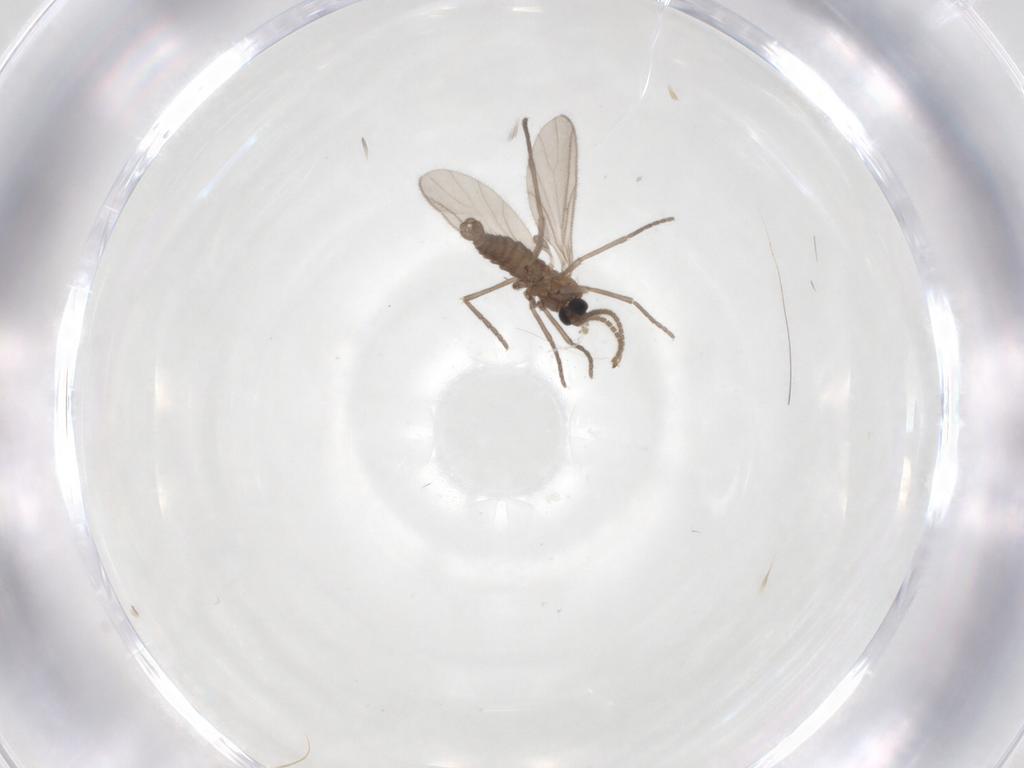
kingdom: Animalia
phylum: Arthropoda
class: Insecta
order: Diptera
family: Sciaridae
